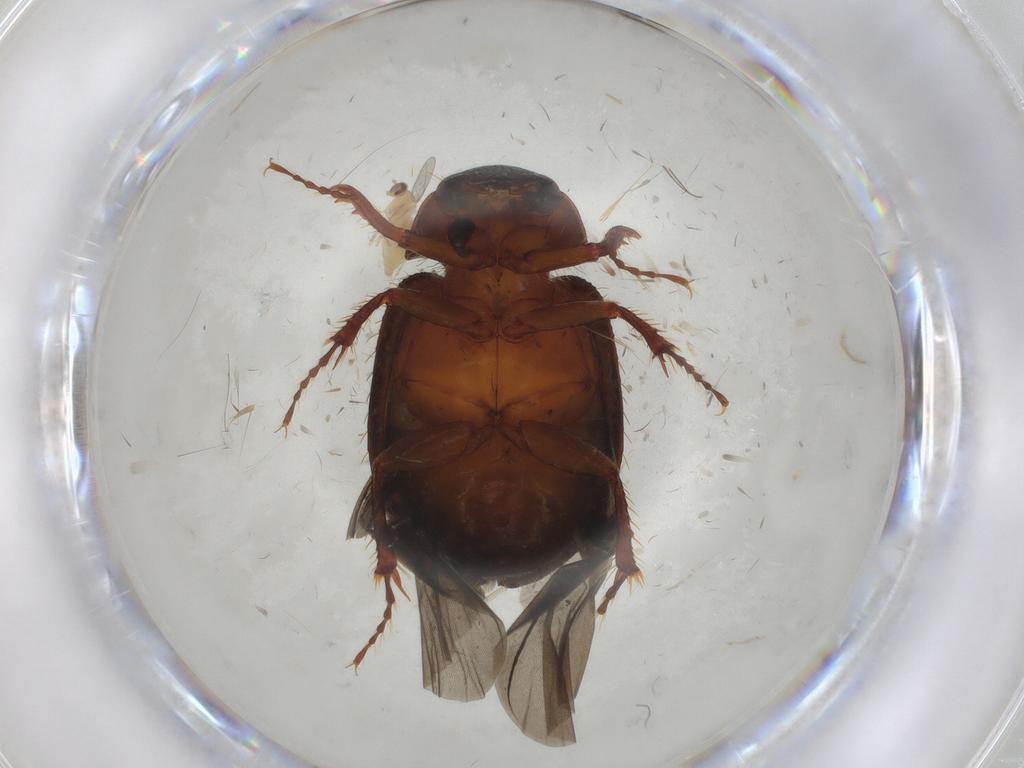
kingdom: Animalia
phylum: Arthropoda
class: Insecta
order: Coleoptera
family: Hybosoridae
